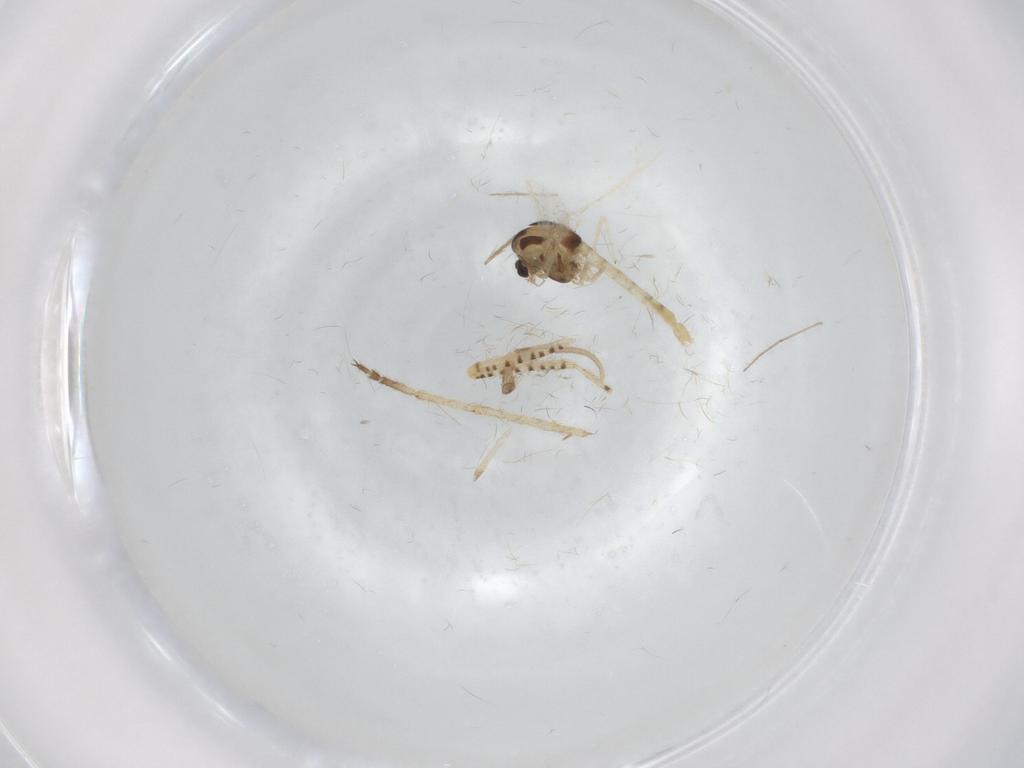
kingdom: Animalia
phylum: Arthropoda
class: Insecta
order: Diptera
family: Chironomidae
